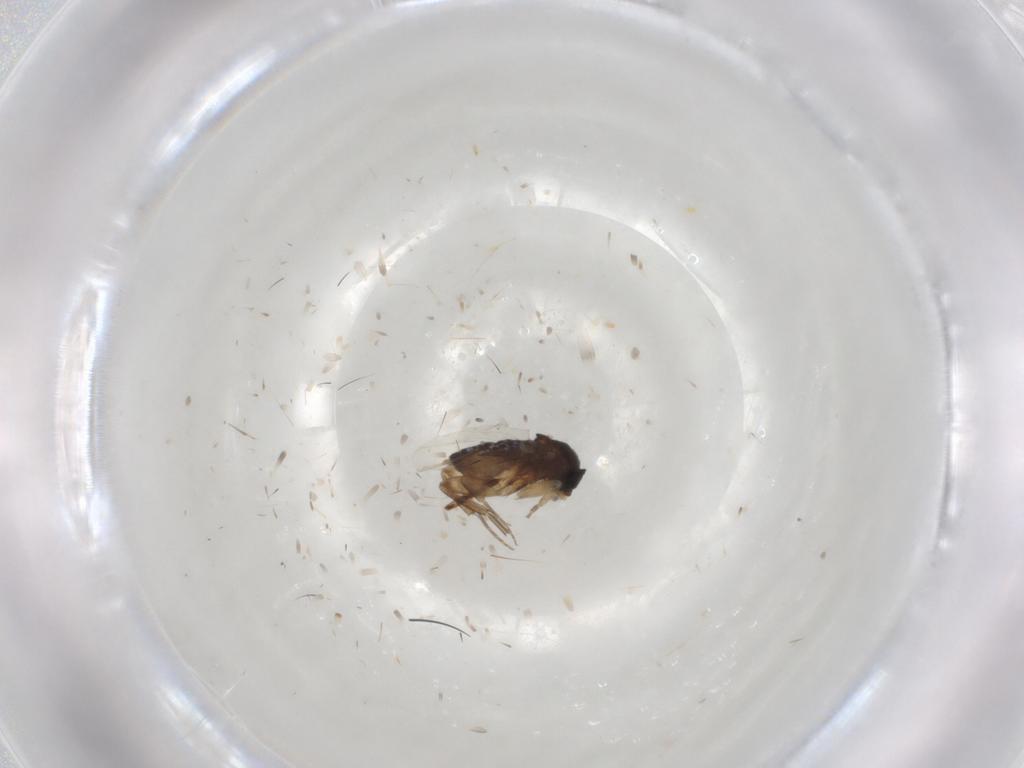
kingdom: Animalia
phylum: Arthropoda
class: Insecta
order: Diptera
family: Phoridae
